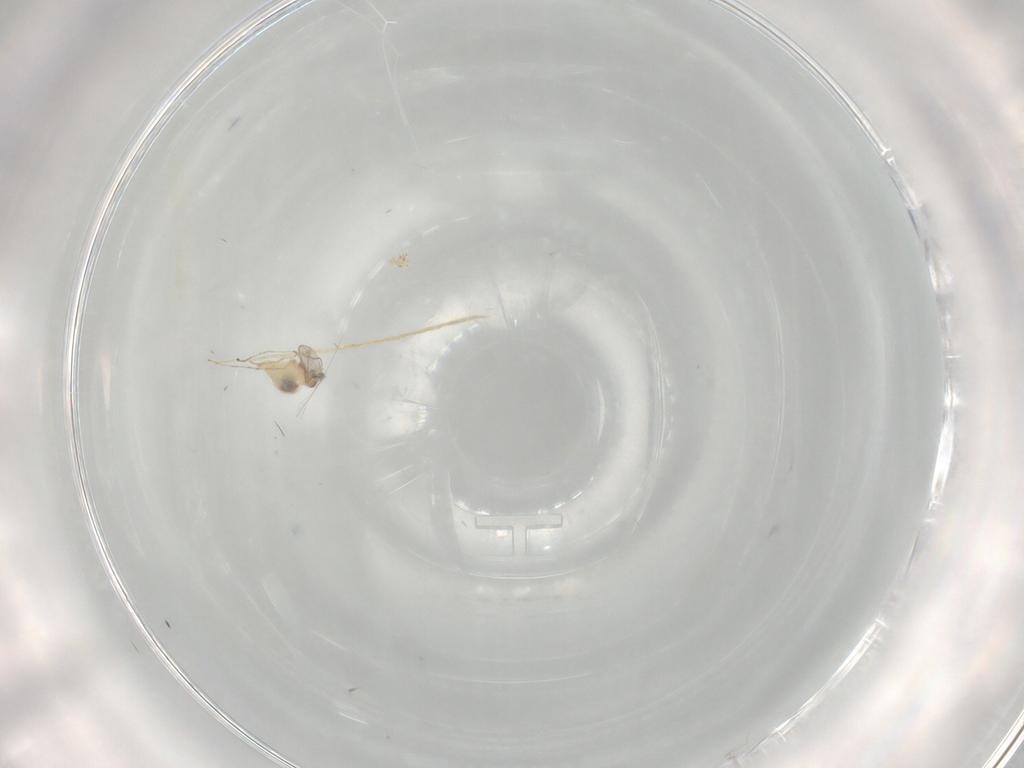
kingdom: Animalia
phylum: Arthropoda
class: Insecta
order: Diptera
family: Cecidomyiidae
